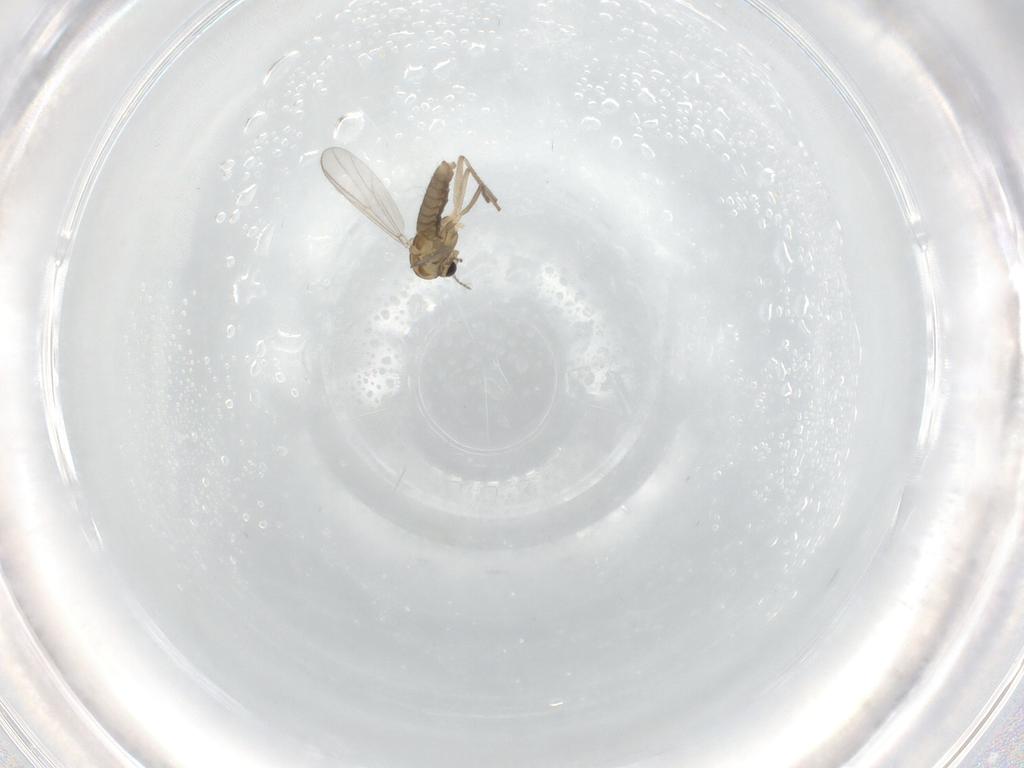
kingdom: Animalia
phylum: Arthropoda
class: Insecta
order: Diptera
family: Chironomidae
